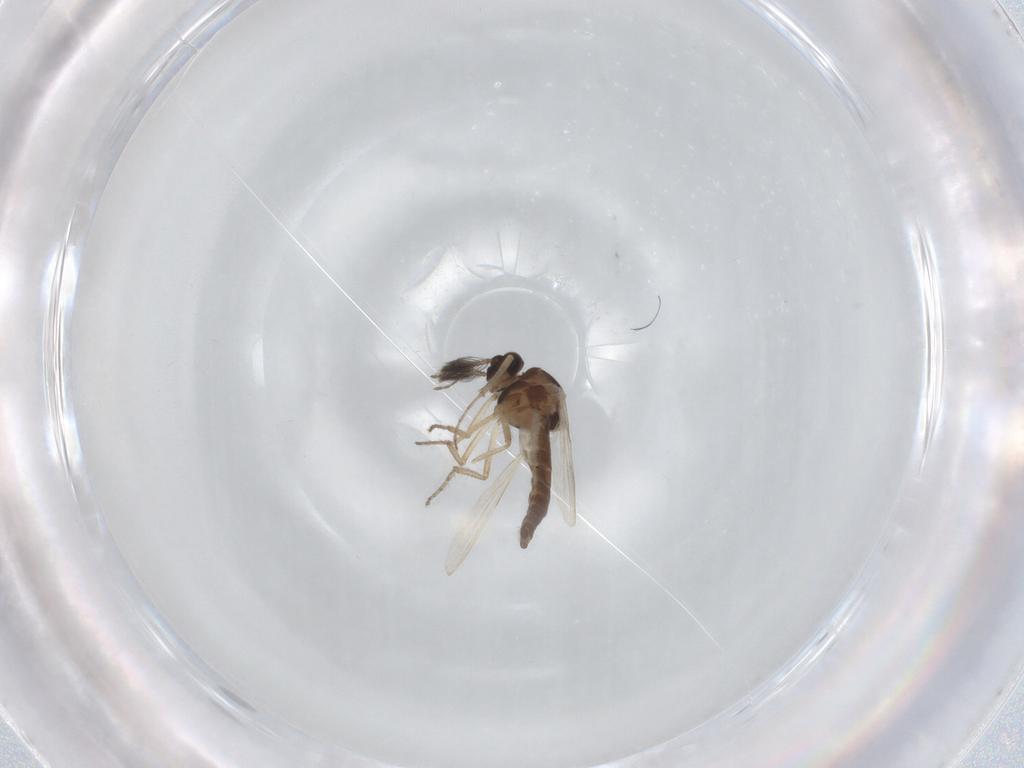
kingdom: Animalia
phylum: Arthropoda
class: Insecta
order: Diptera
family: Ceratopogonidae
